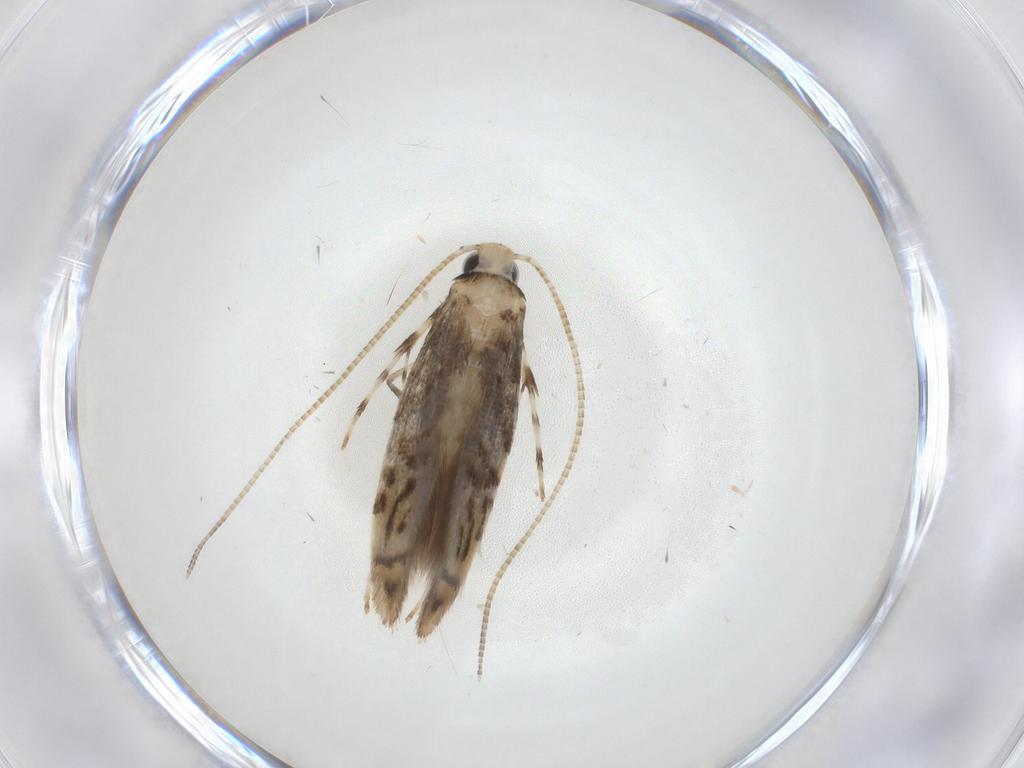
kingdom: Animalia
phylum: Arthropoda
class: Insecta
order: Lepidoptera
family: Gracillariidae
